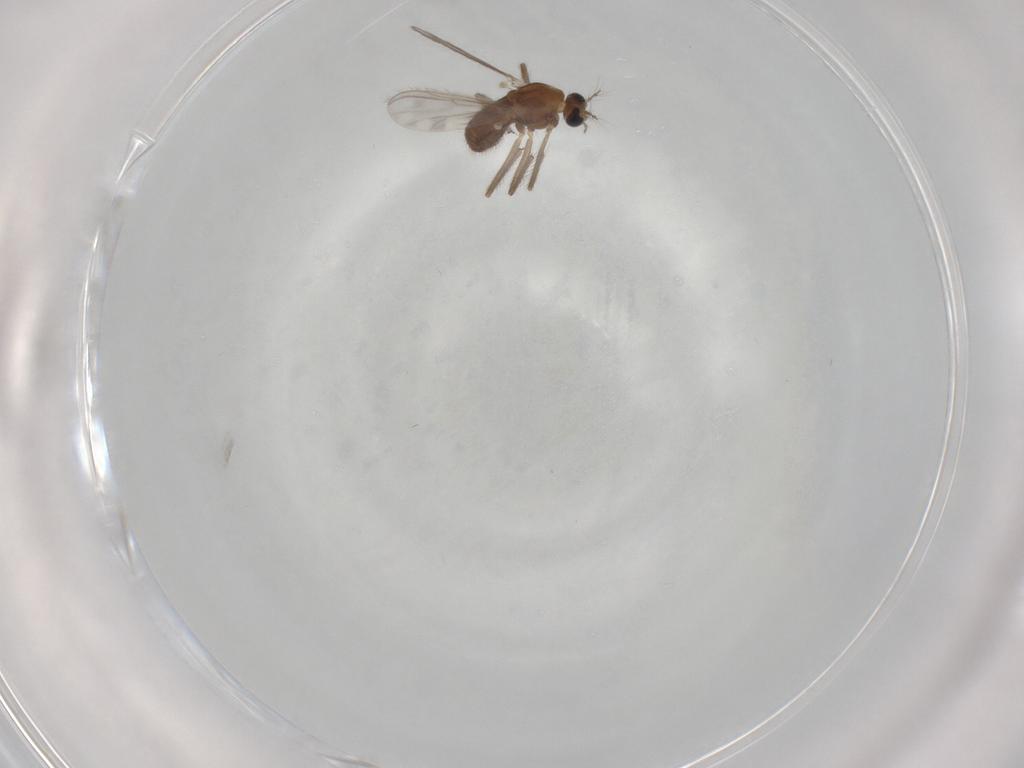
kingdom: Animalia
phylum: Arthropoda
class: Insecta
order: Diptera
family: Chironomidae
